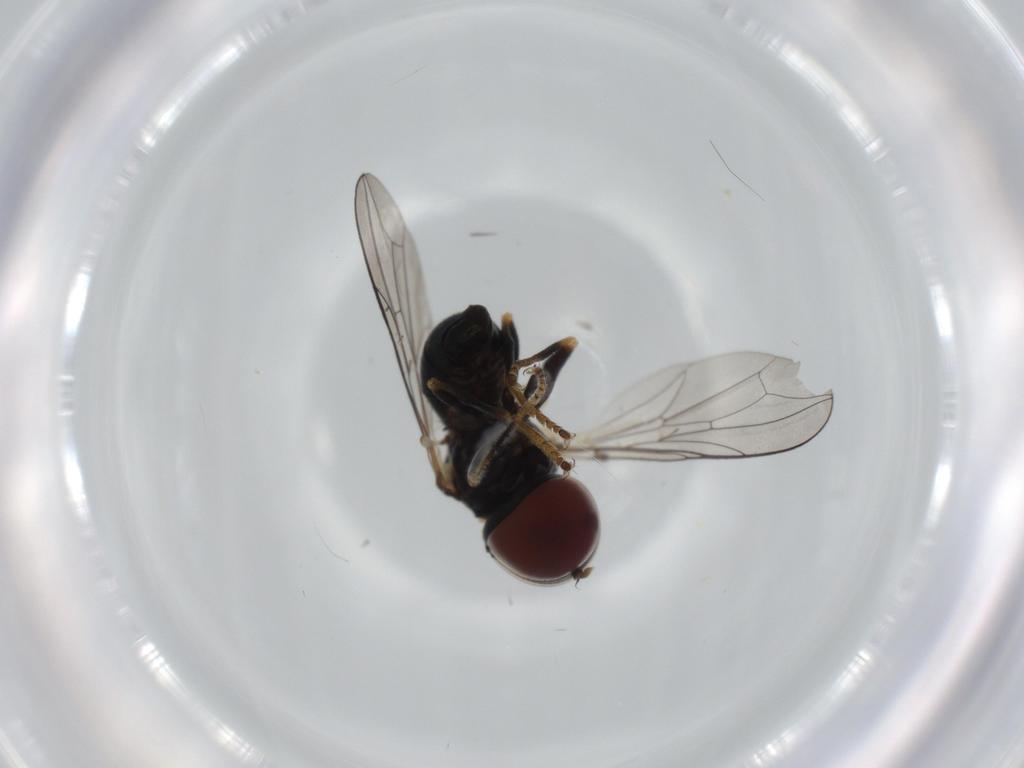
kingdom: Animalia
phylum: Arthropoda
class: Insecta
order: Diptera
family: Pipunculidae
